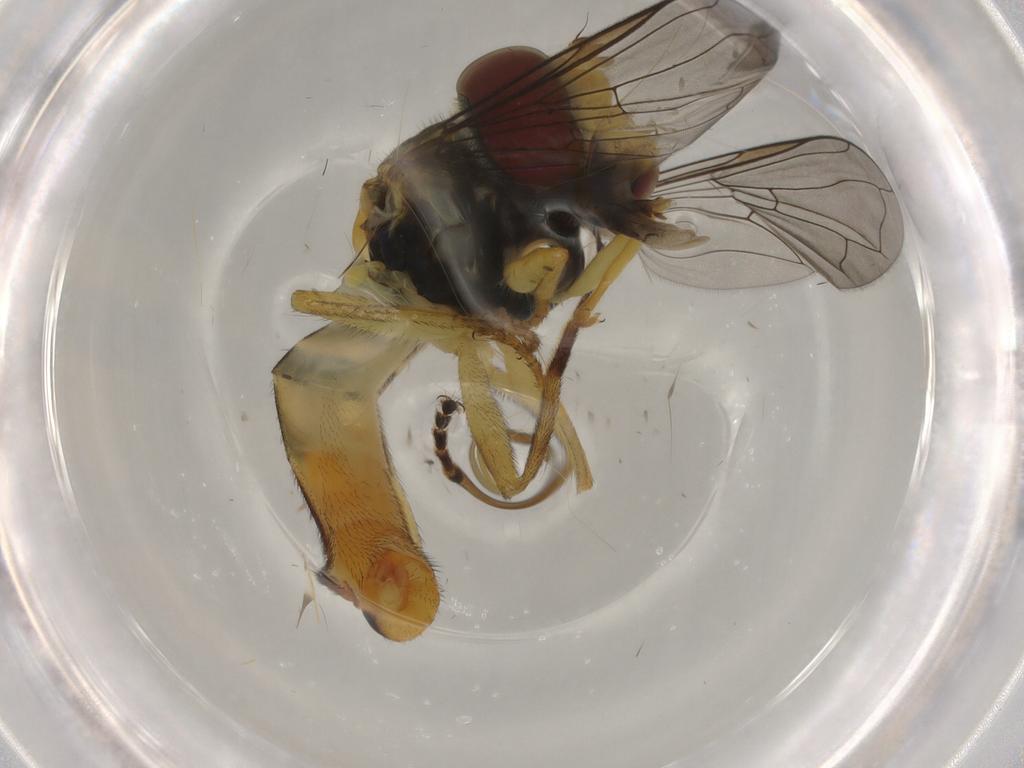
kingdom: Animalia
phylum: Arthropoda
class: Insecta
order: Diptera
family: Syrphidae
